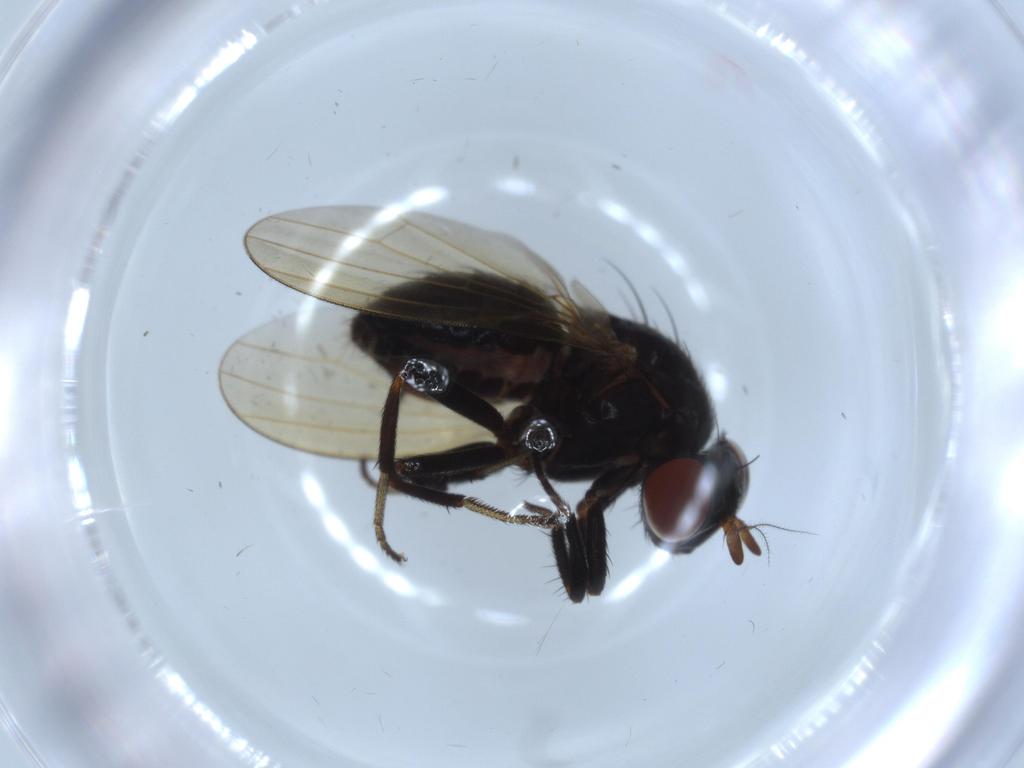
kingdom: Animalia
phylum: Arthropoda
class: Insecta
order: Diptera
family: Lauxaniidae
